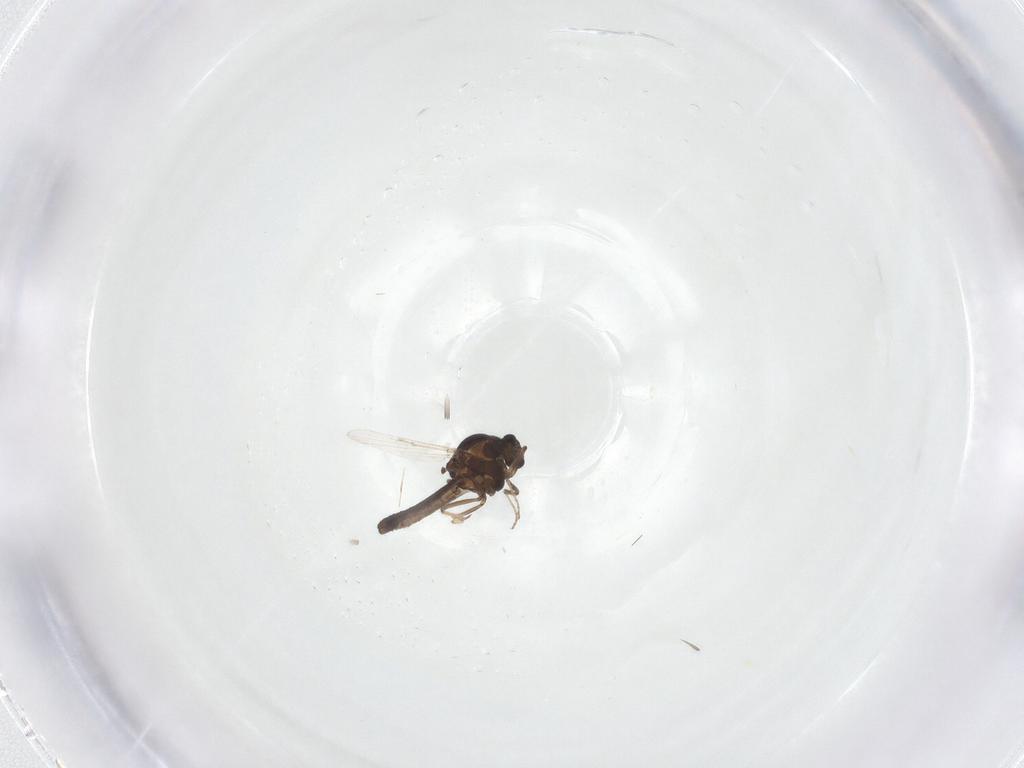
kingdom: Animalia
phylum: Arthropoda
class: Insecta
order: Diptera
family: Ceratopogonidae
